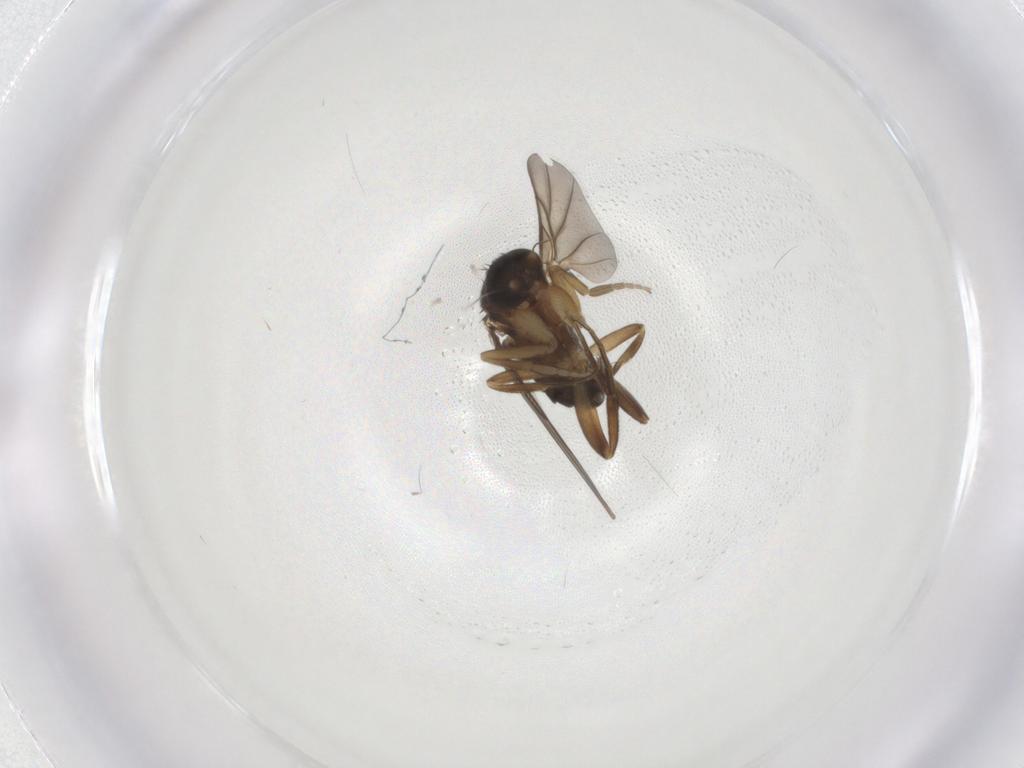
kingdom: Animalia
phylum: Arthropoda
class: Insecta
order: Diptera
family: Phoridae
